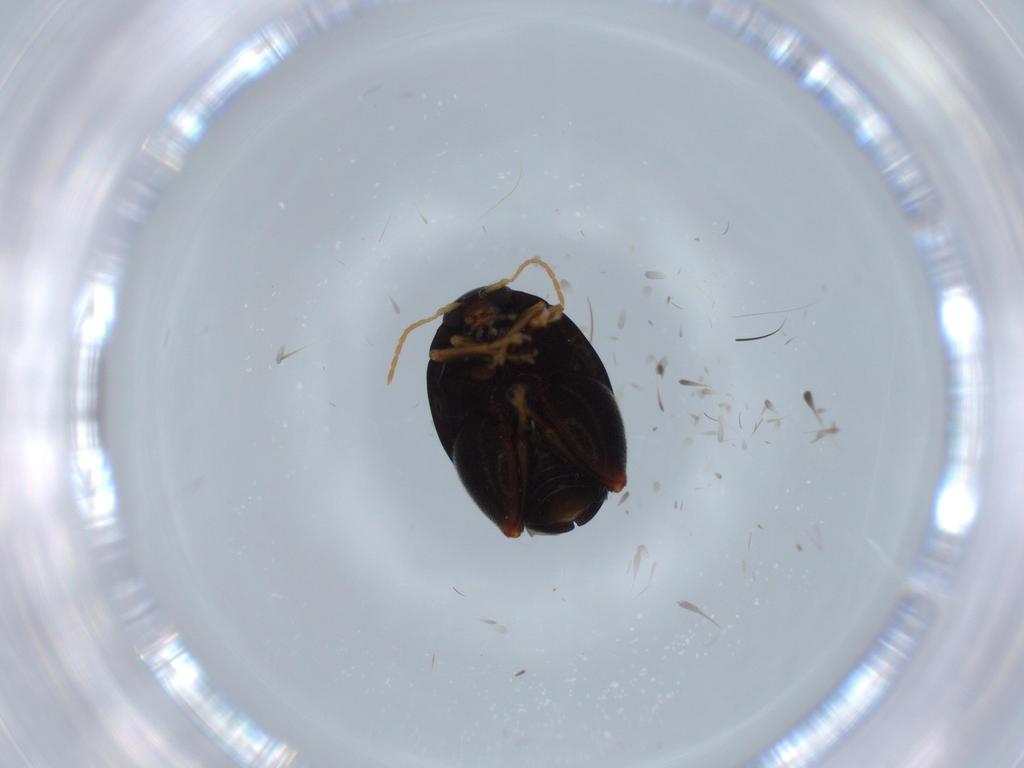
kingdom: Animalia
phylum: Arthropoda
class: Insecta
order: Coleoptera
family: Chrysomelidae
